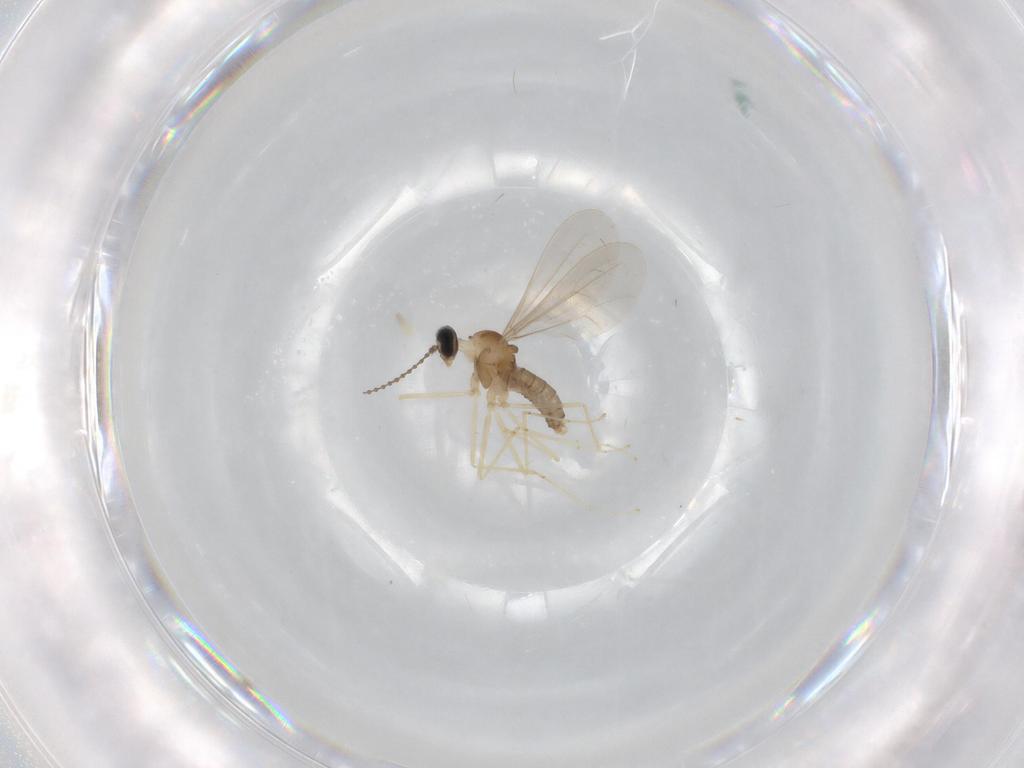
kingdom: Animalia
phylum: Arthropoda
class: Insecta
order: Diptera
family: Cecidomyiidae
